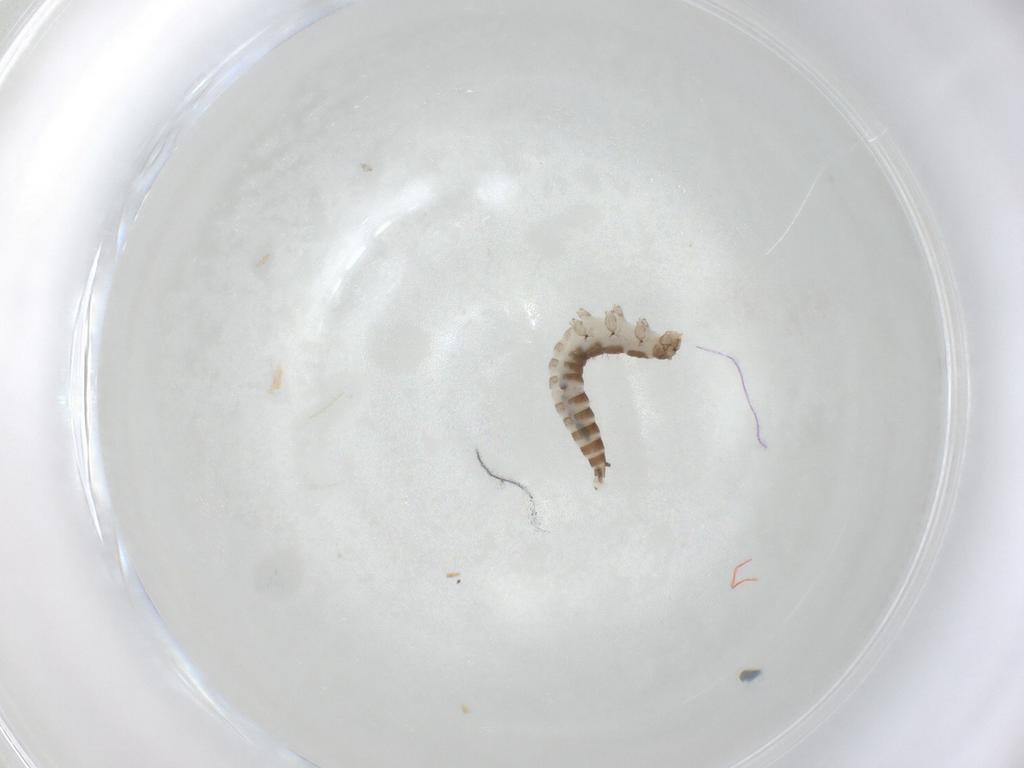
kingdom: Animalia
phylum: Arthropoda
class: Insecta
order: Coleoptera
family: Hydraenidae
